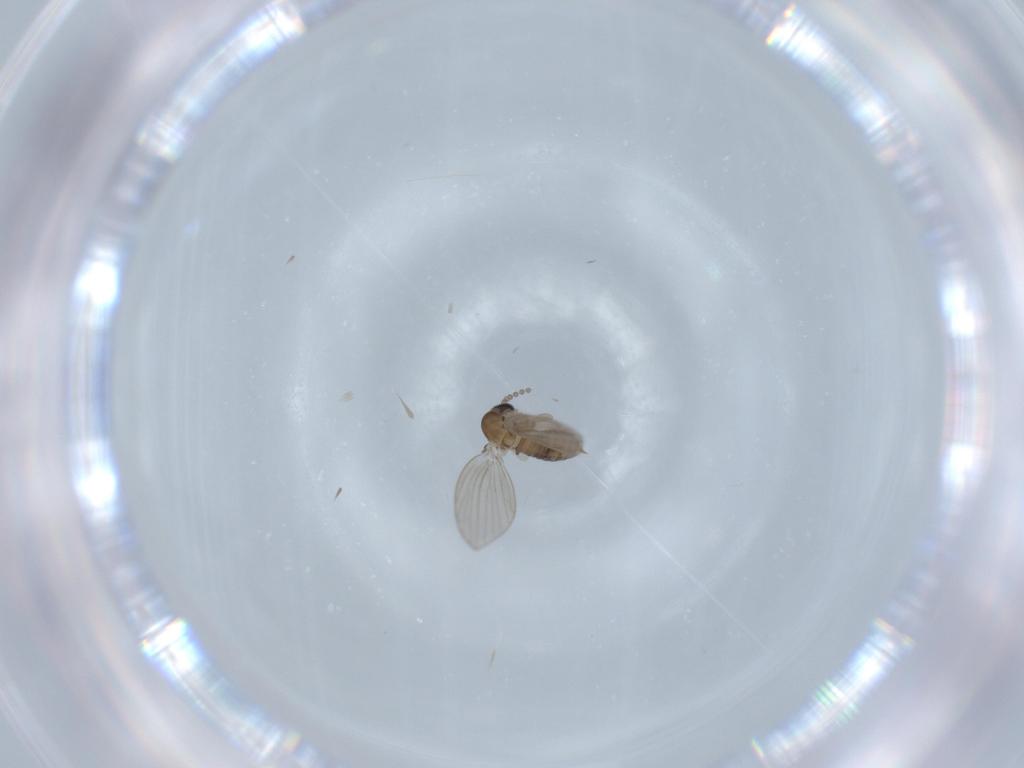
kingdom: Animalia
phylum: Arthropoda
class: Insecta
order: Diptera
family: Psychodidae
